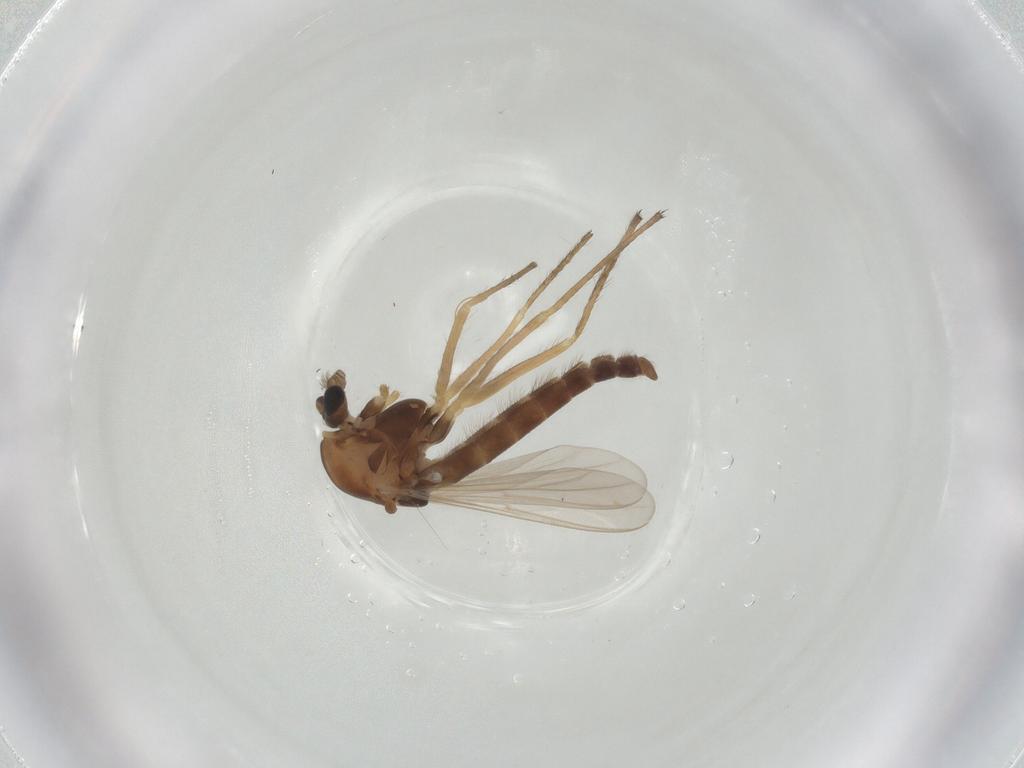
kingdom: Animalia
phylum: Arthropoda
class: Insecta
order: Diptera
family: Chironomidae
